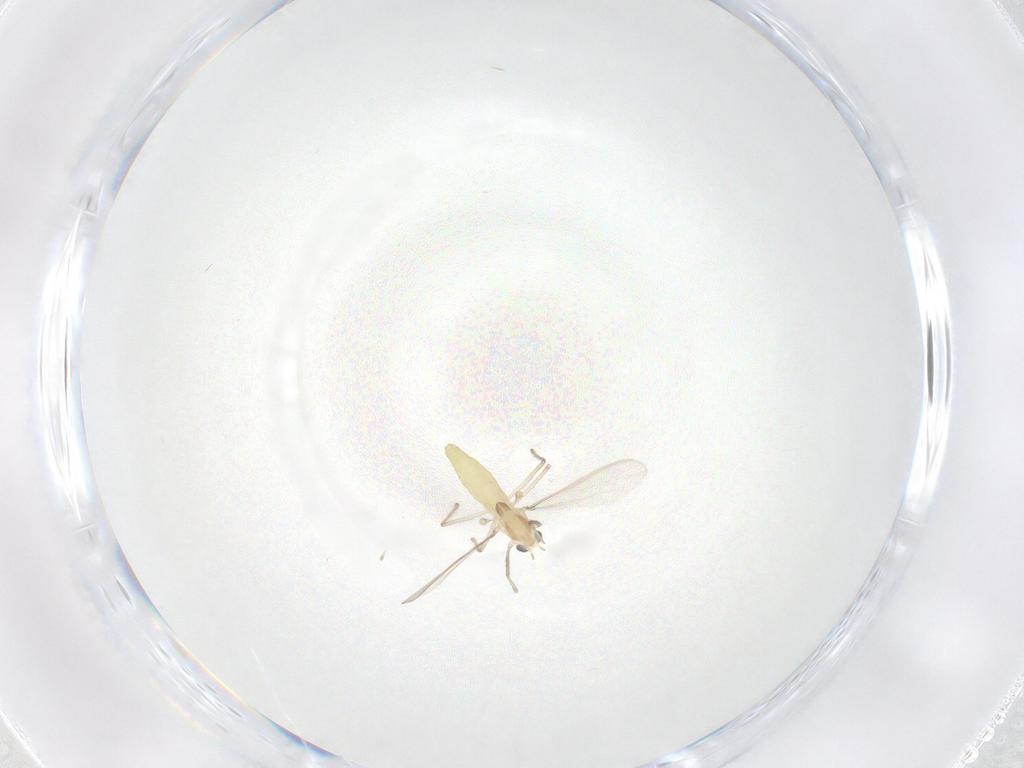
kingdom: Animalia
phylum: Arthropoda
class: Insecta
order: Diptera
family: Chironomidae
